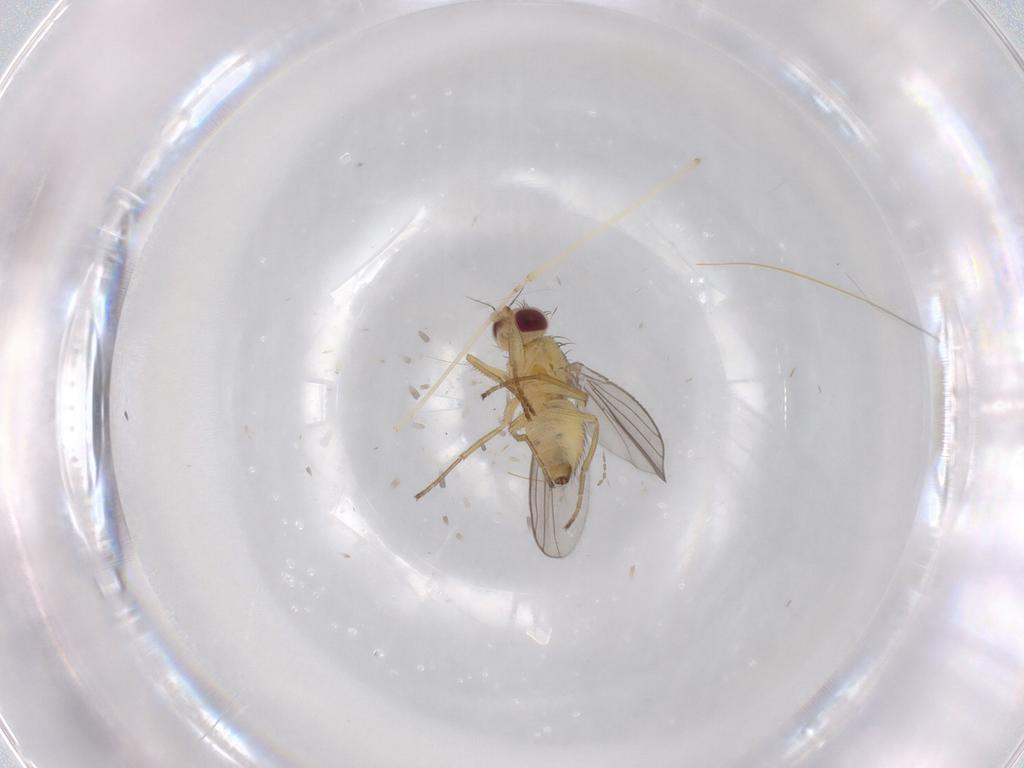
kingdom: Animalia
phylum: Arthropoda
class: Insecta
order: Diptera
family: Agromyzidae
